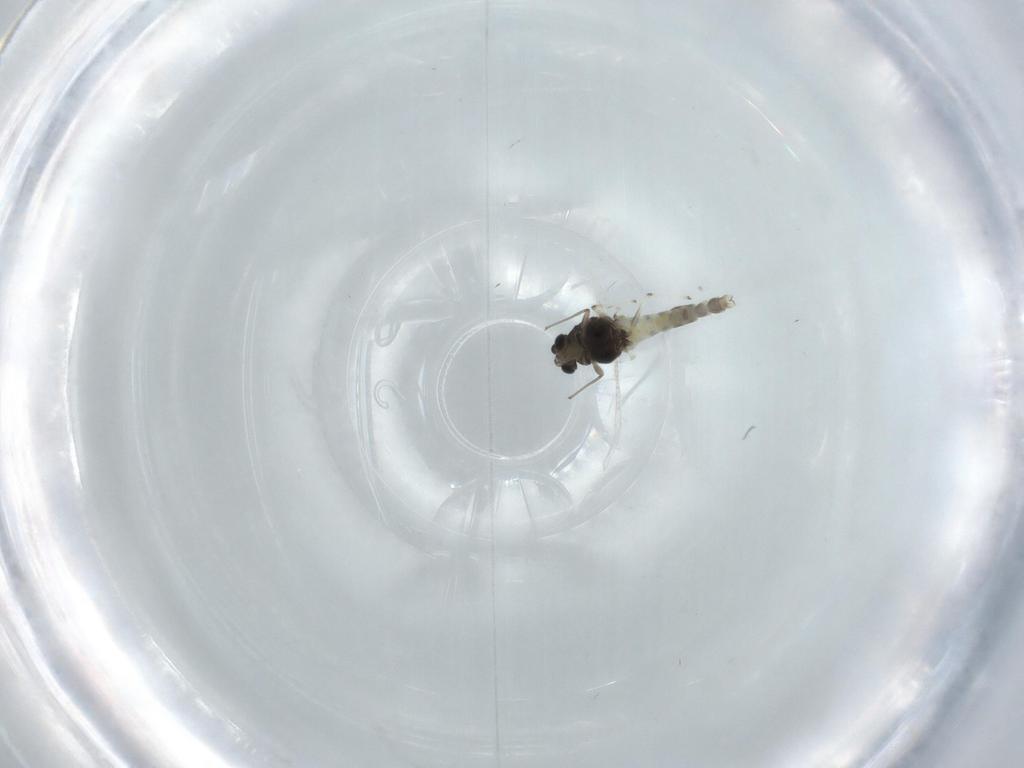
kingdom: Animalia
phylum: Arthropoda
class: Insecta
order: Diptera
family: Chironomidae
